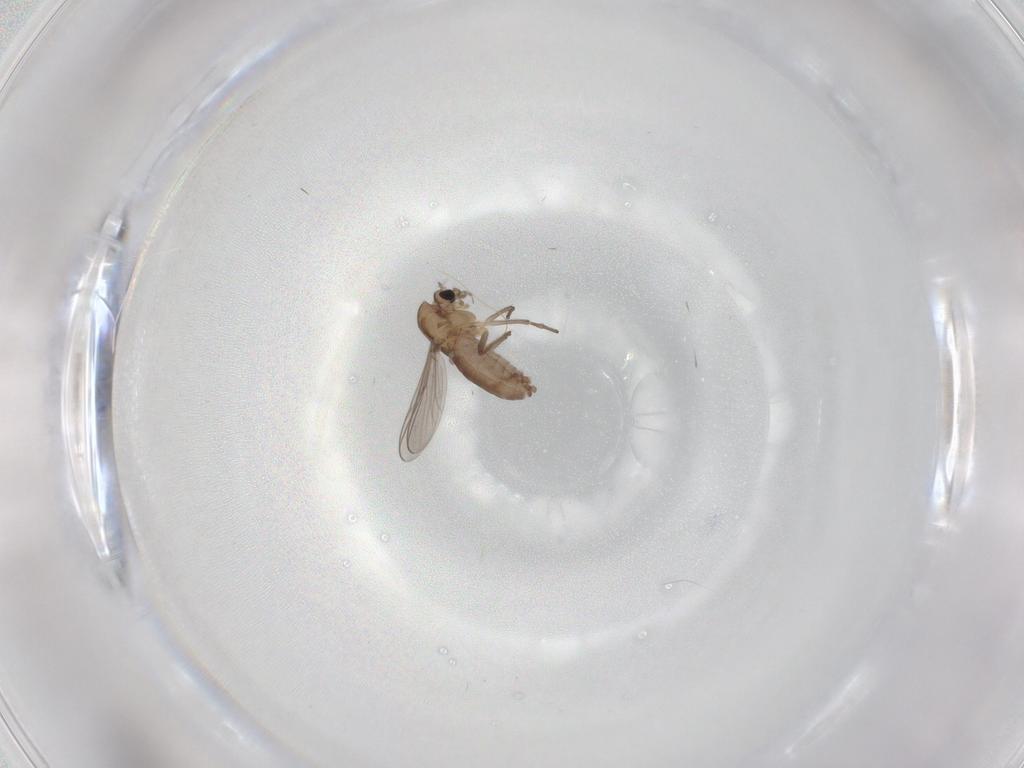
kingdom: Animalia
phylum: Arthropoda
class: Insecta
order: Diptera
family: Chironomidae
